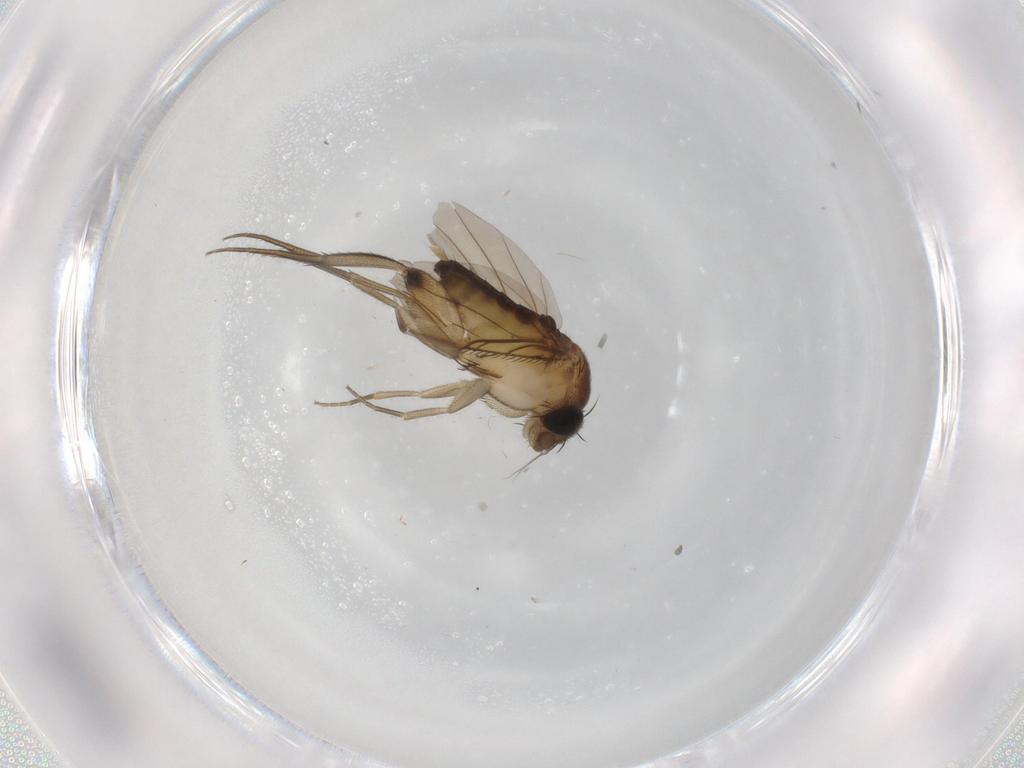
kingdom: Animalia
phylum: Arthropoda
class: Insecta
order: Diptera
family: Phoridae
